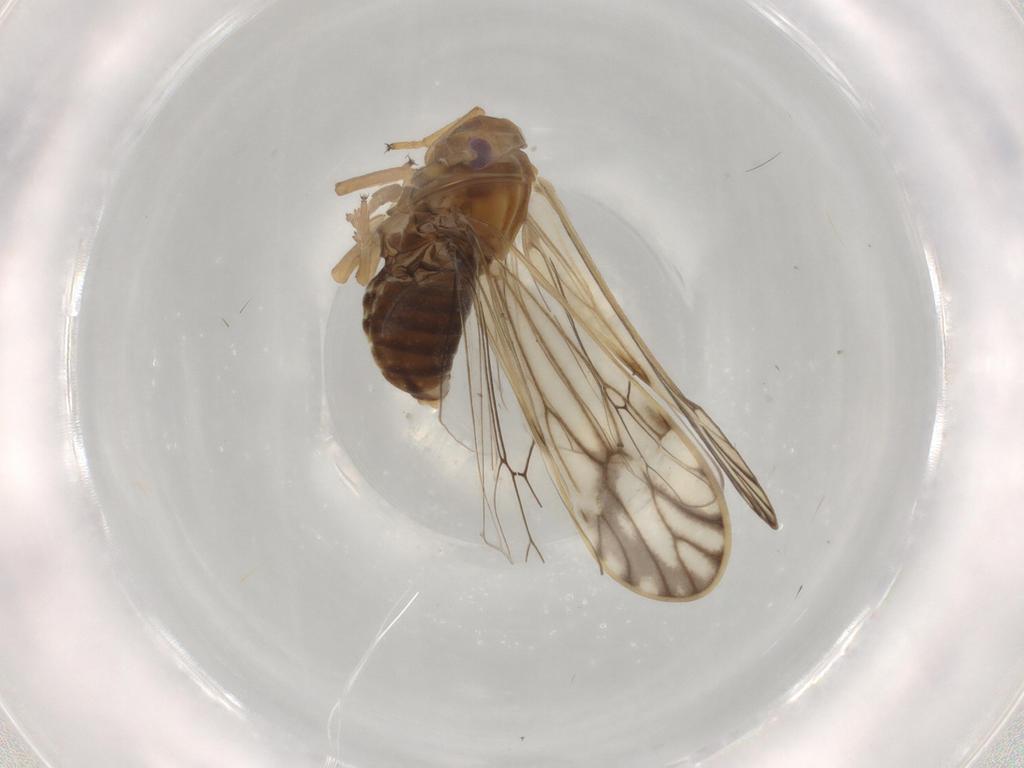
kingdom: Animalia
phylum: Arthropoda
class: Insecta
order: Hemiptera
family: Delphacidae
